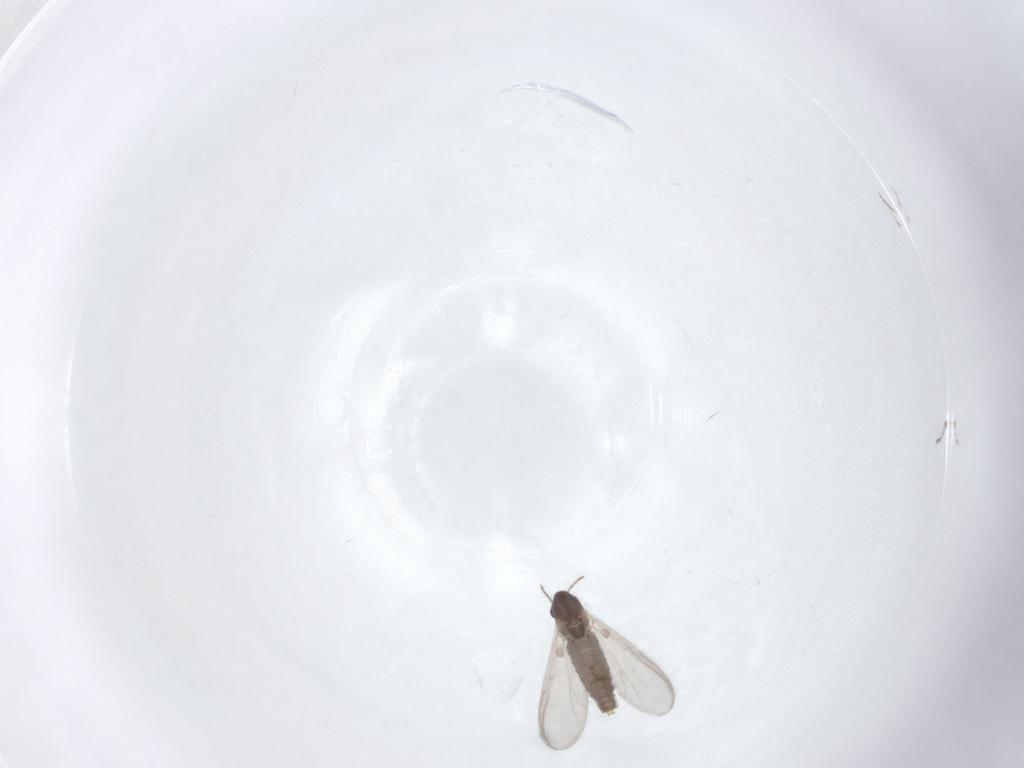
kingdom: Animalia
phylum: Arthropoda
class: Insecta
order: Diptera
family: Chironomidae
